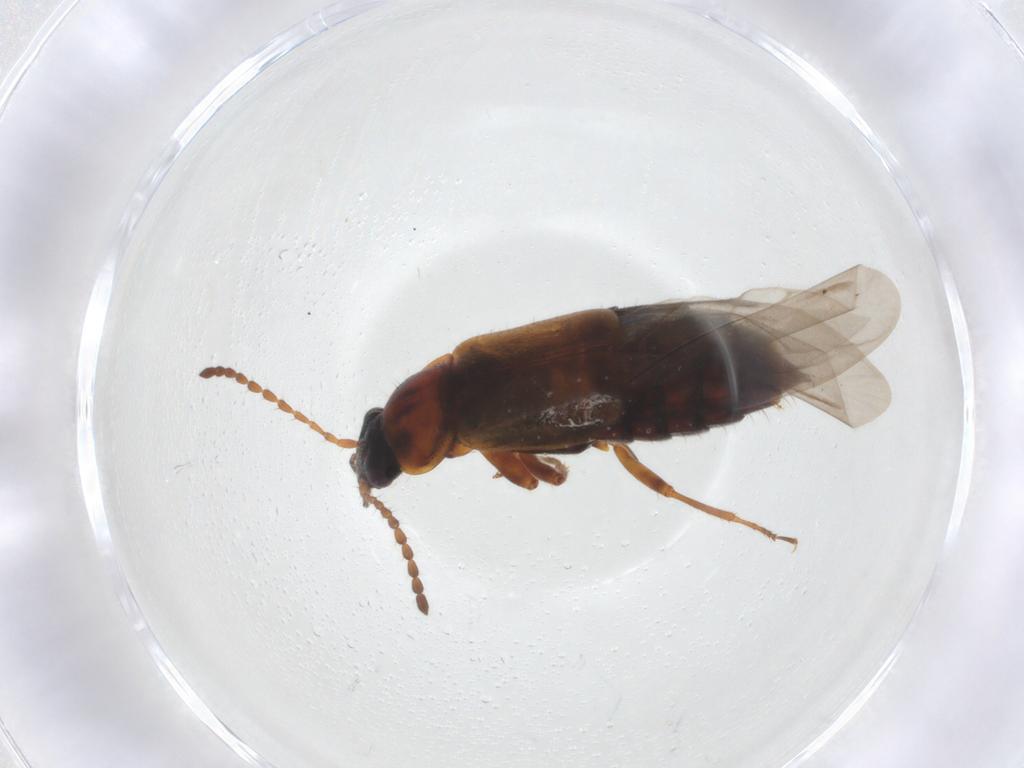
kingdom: Animalia
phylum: Arthropoda
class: Insecta
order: Coleoptera
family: Staphylinidae
